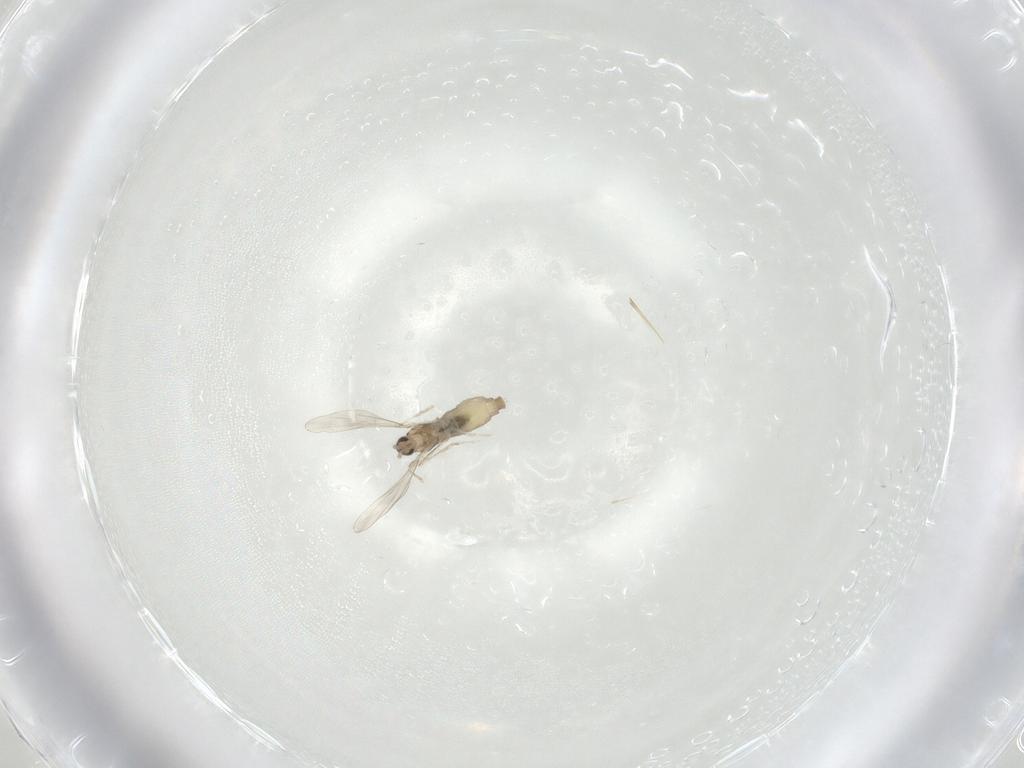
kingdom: Animalia
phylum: Arthropoda
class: Insecta
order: Diptera
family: Cecidomyiidae
